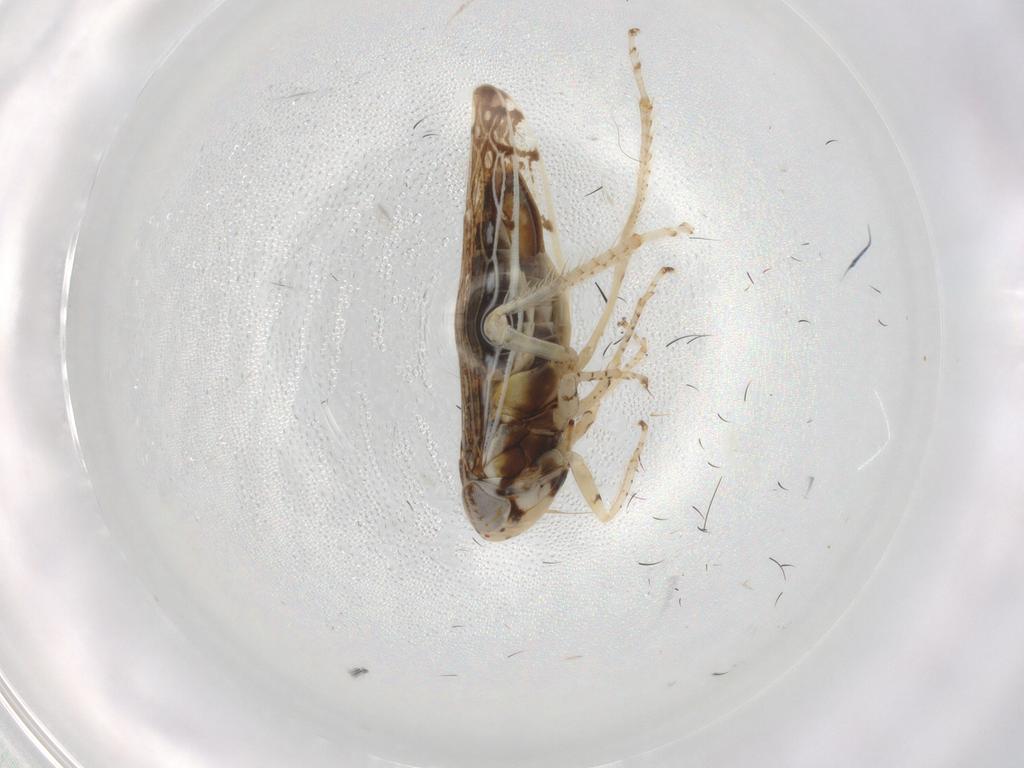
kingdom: Animalia
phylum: Arthropoda
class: Insecta
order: Hemiptera
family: Cicadellidae
